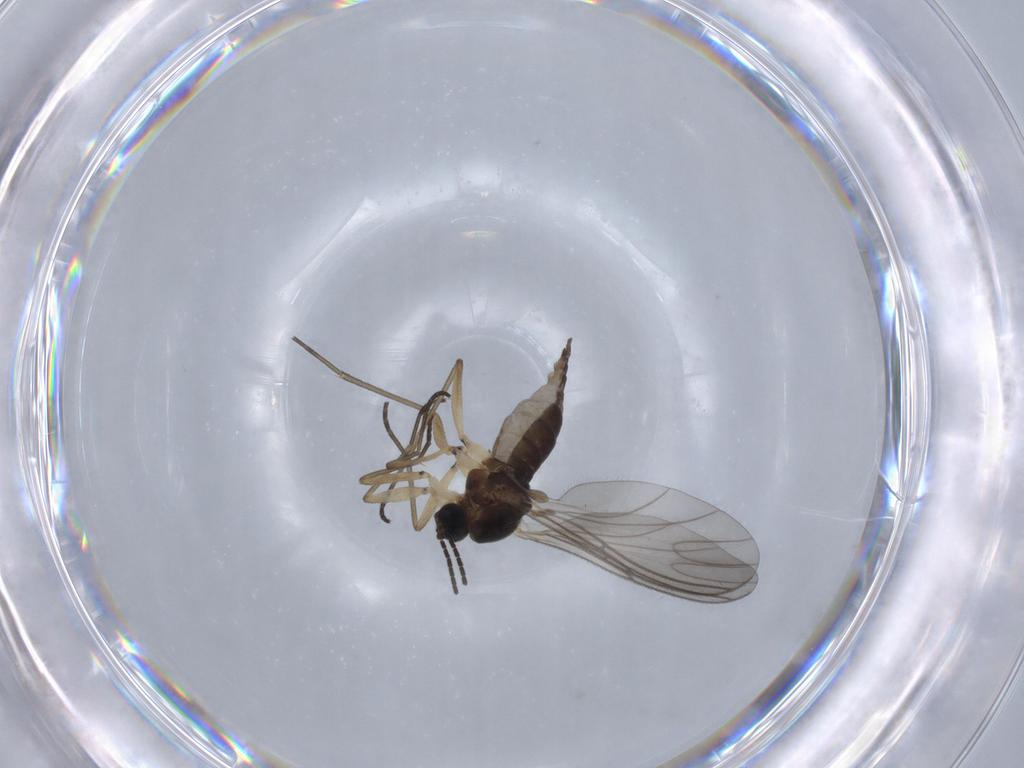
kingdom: Animalia
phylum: Arthropoda
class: Insecta
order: Diptera
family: Sciaridae
